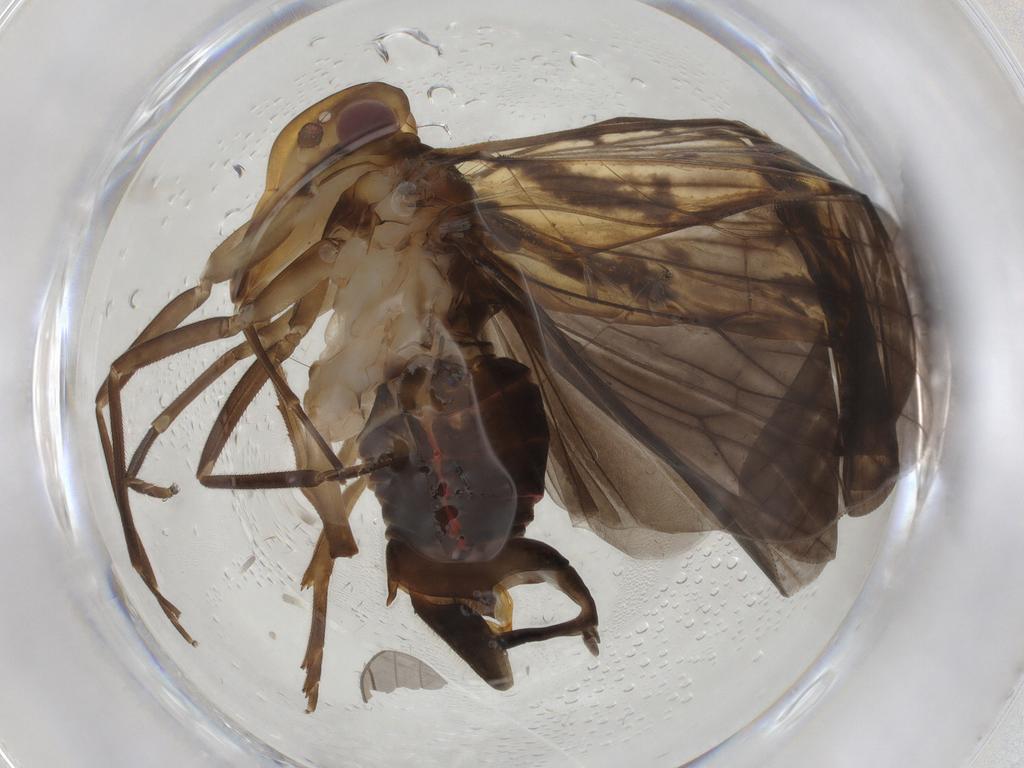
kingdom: Animalia
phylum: Arthropoda
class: Insecta
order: Hemiptera
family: Cixiidae
